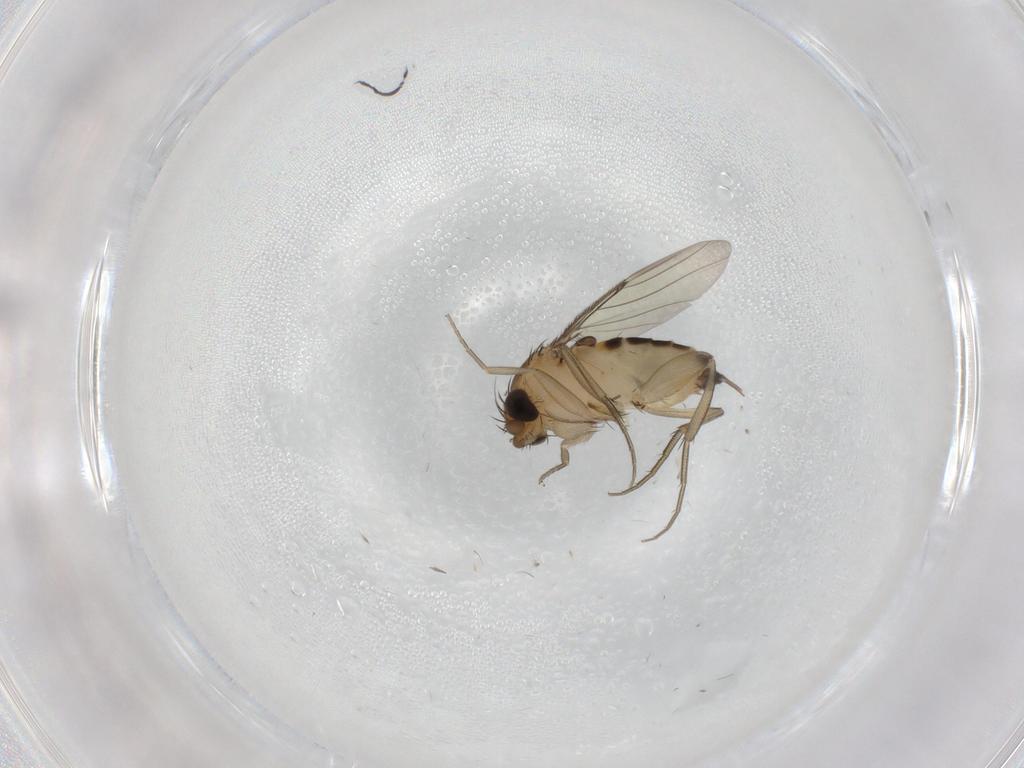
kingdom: Animalia
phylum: Arthropoda
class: Insecta
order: Diptera
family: Phoridae
